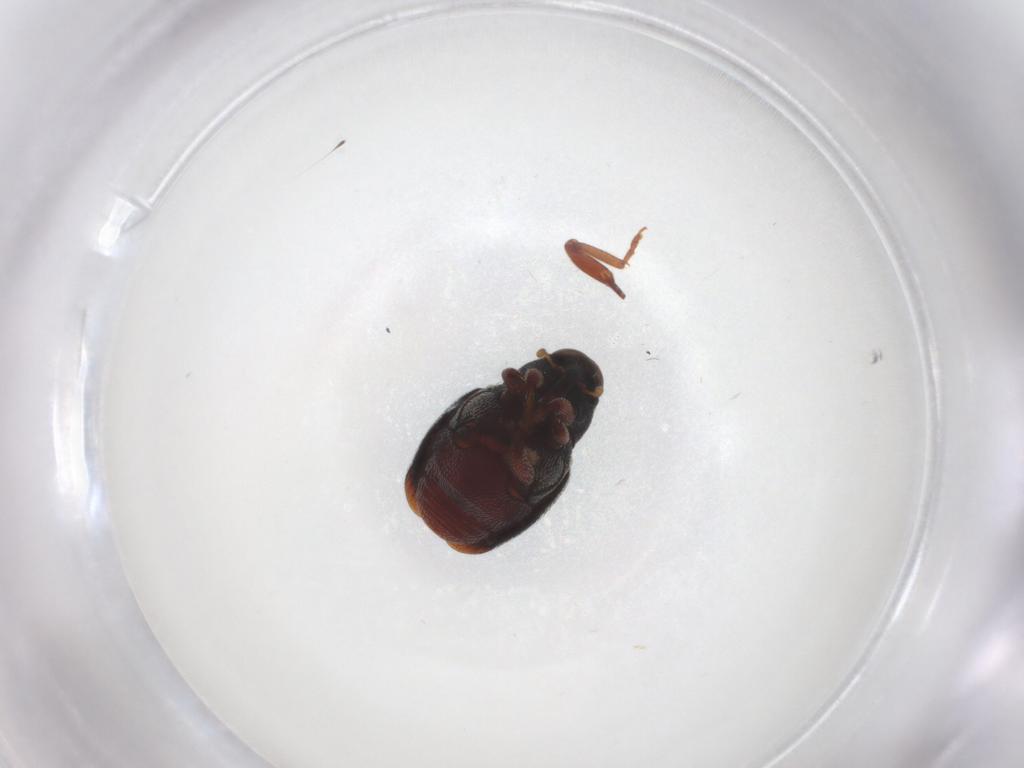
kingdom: Animalia
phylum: Arthropoda
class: Insecta
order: Coleoptera
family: Curculionidae
